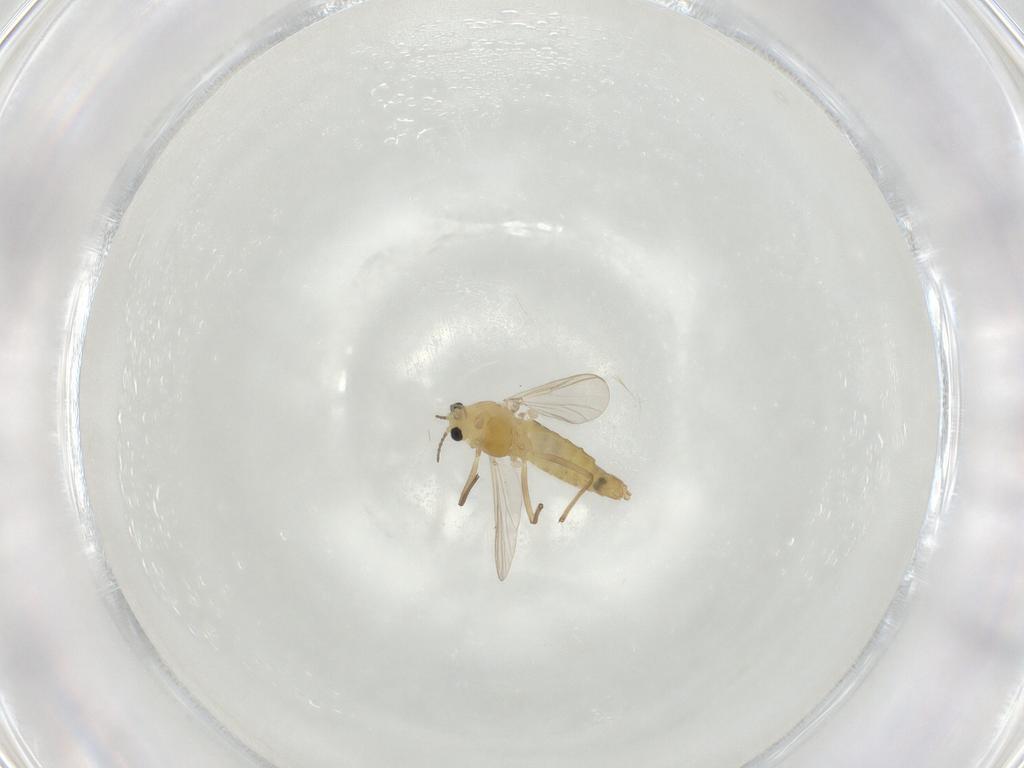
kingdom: Animalia
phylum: Arthropoda
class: Insecta
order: Diptera
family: Chironomidae
